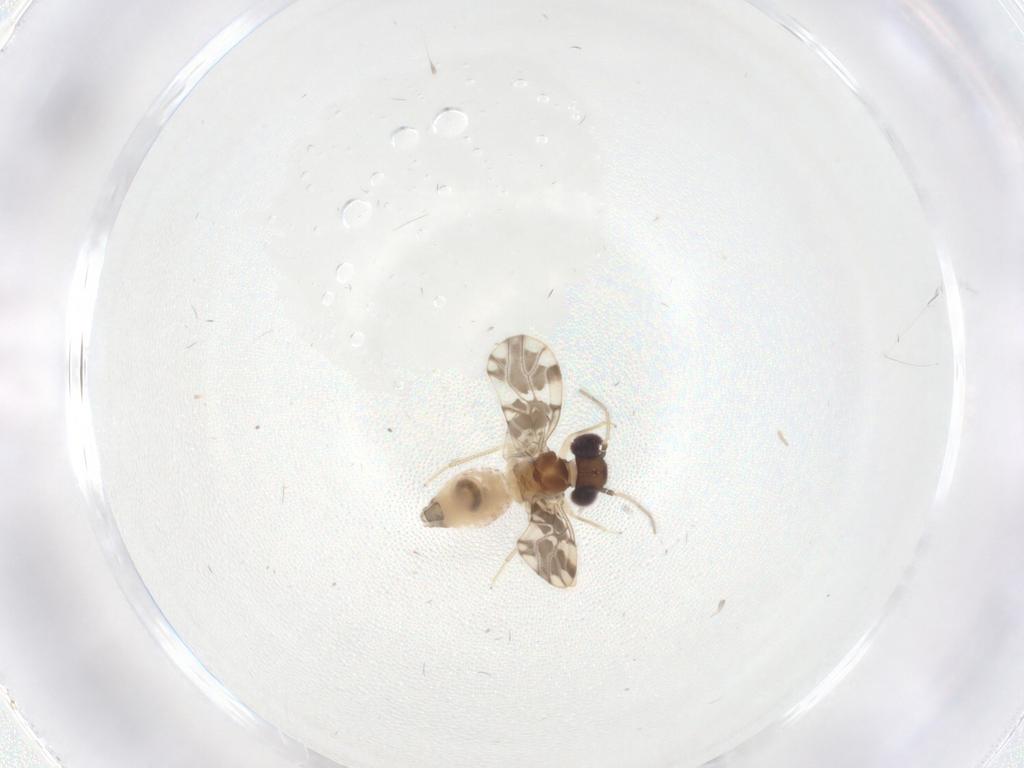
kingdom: Animalia
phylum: Arthropoda
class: Insecta
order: Psocodea
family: Ectopsocidae
